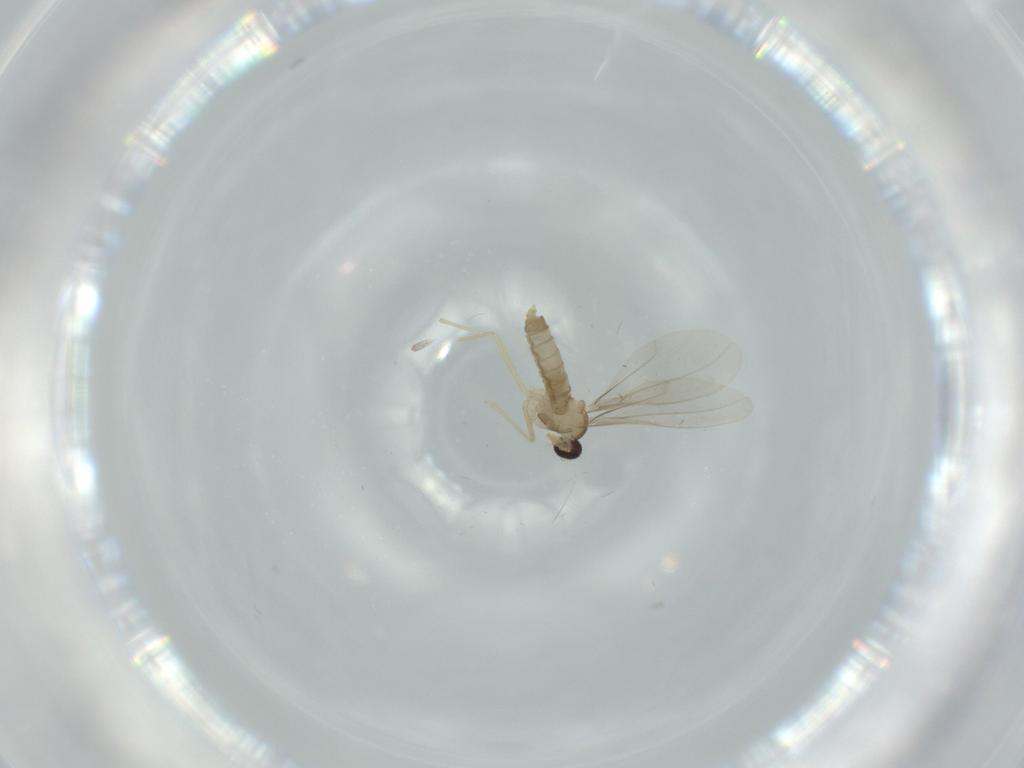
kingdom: Animalia
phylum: Arthropoda
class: Insecta
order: Diptera
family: Cecidomyiidae
